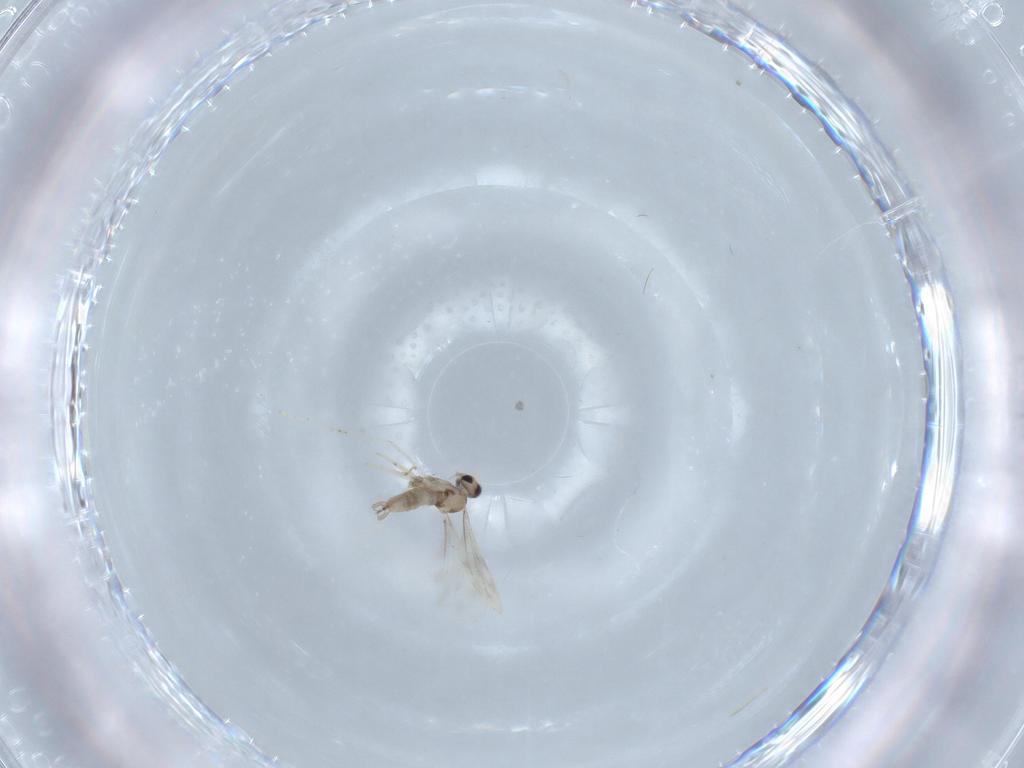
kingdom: Animalia
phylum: Arthropoda
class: Insecta
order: Diptera
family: Cecidomyiidae
